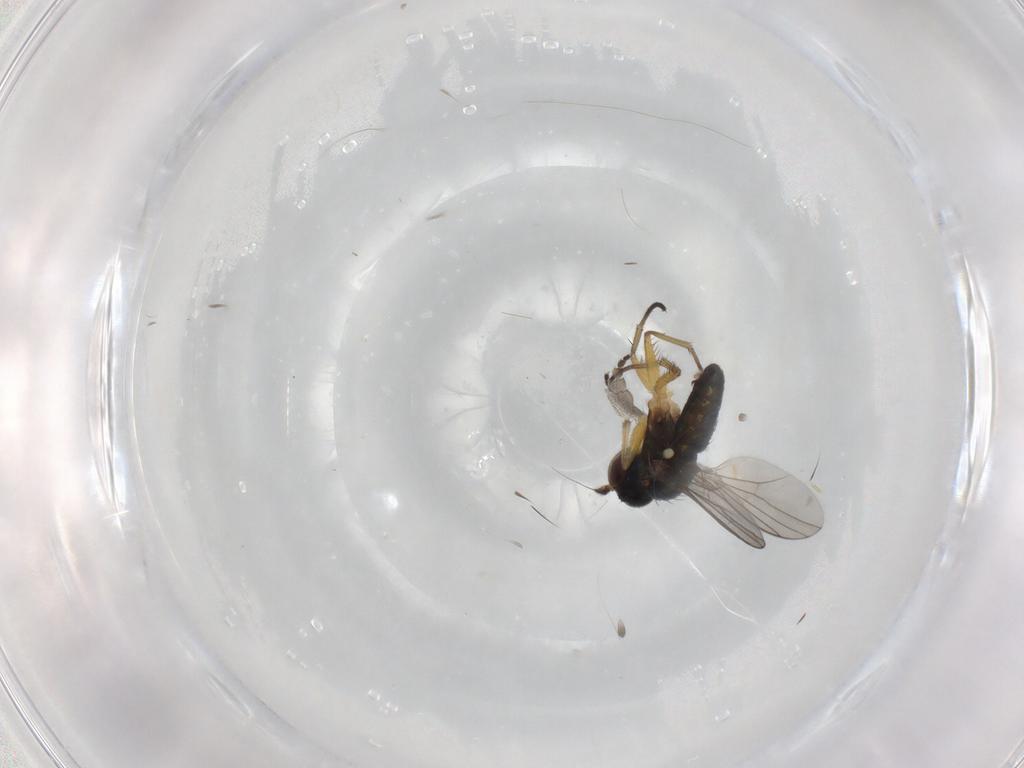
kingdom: Animalia
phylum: Arthropoda
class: Insecta
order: Diptera
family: Dolichopodidae
